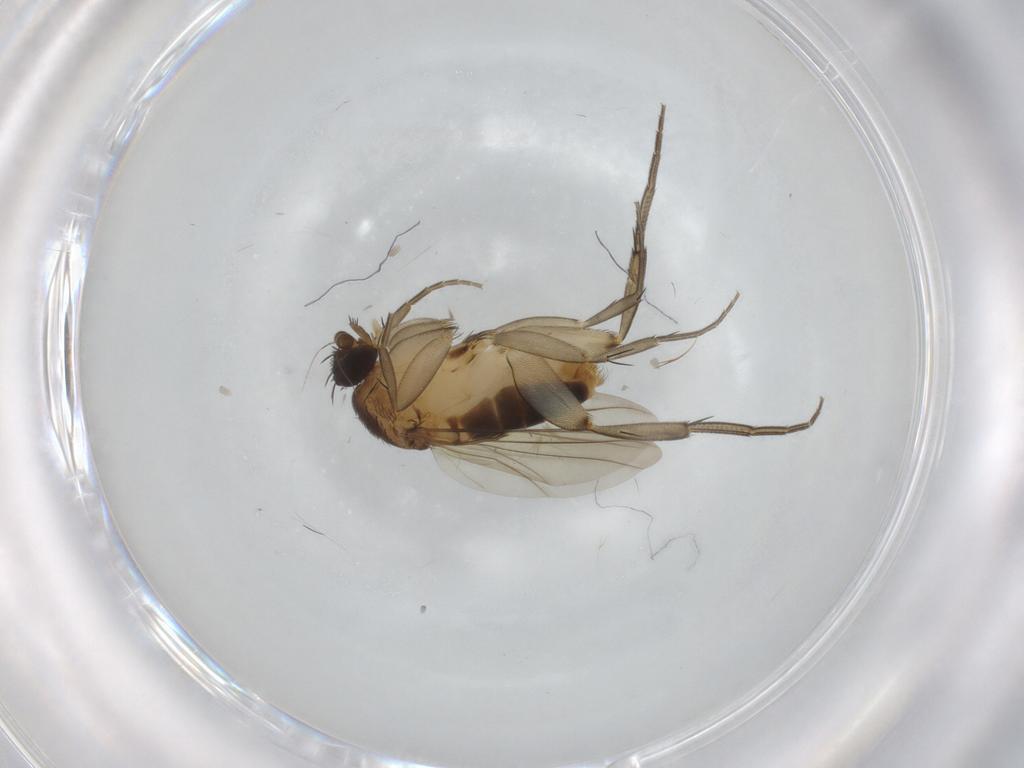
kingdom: Animalia
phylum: Arthropoda
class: Insecta
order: Diptera
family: Phoridae
